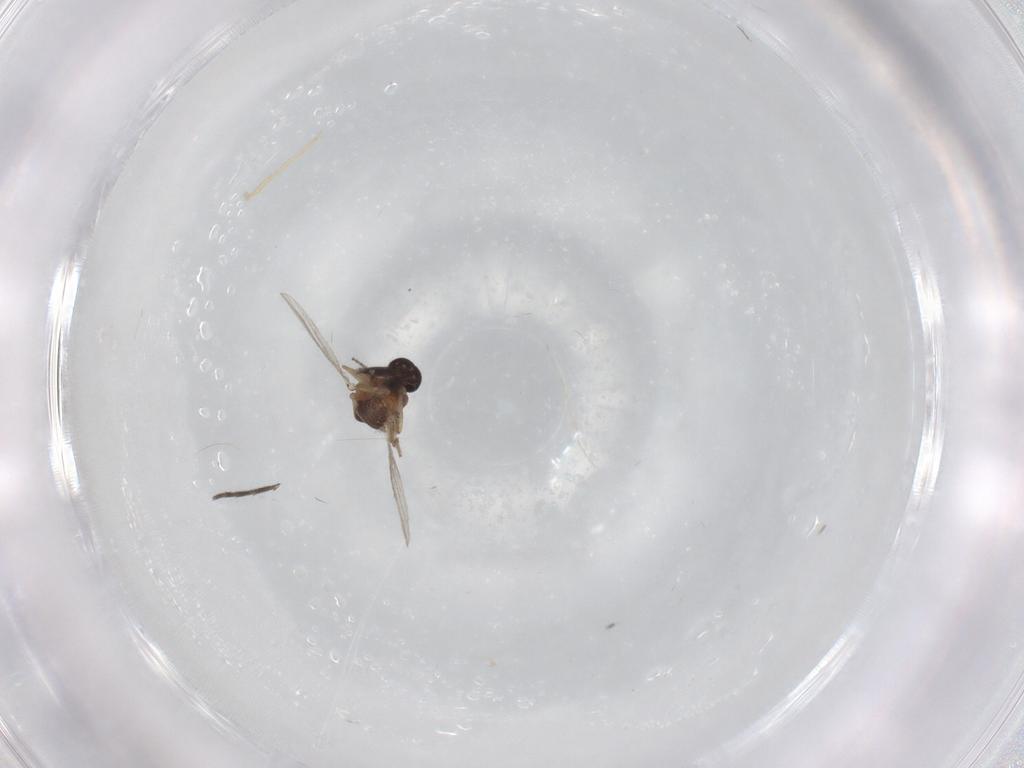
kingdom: Animalia
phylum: Arthropoda
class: Insecta
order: Diptera
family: Ceratopogonidae
